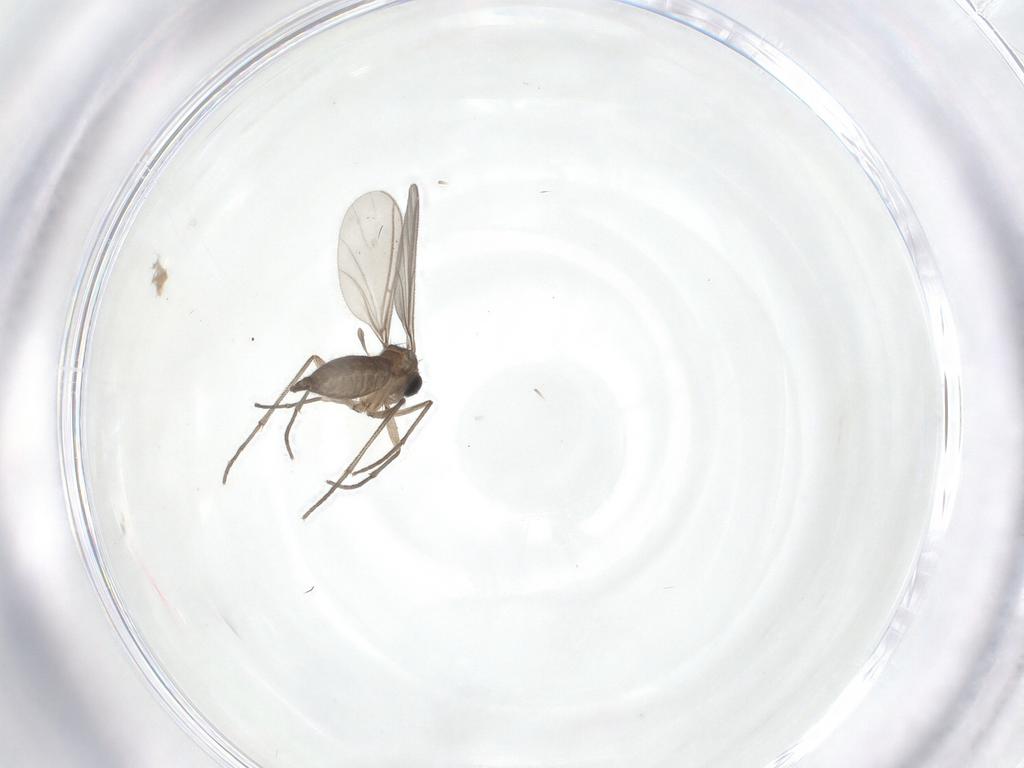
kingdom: Animalia
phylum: Arthropoda
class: Insecta
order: Diptera
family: Sciaridae
